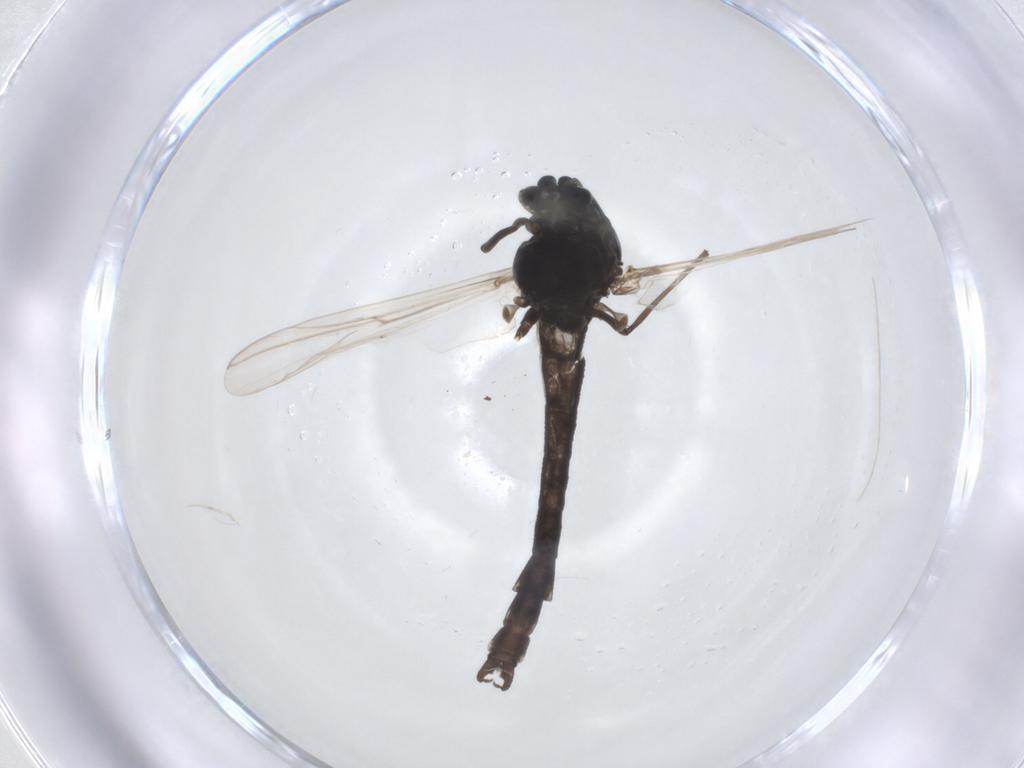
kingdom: Animalia
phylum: Arthropoda
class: Insecta
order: Diptera
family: Chironomidae
